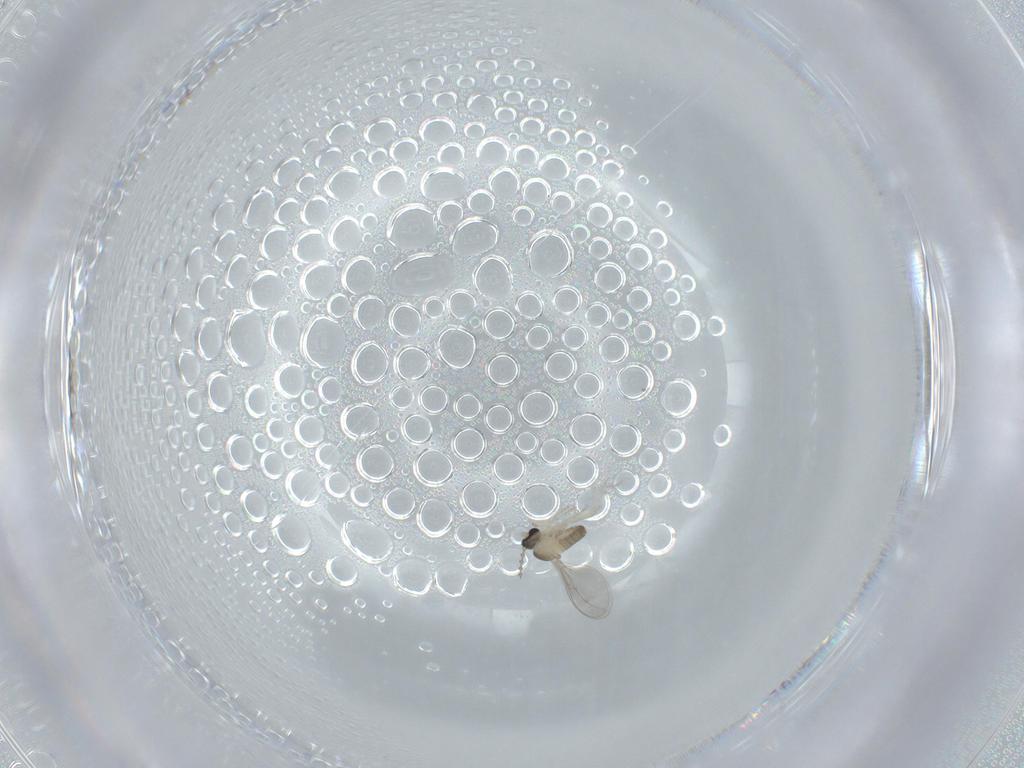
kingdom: Animalia
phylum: Arthropoda
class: Insecta
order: Diptera
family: Cecidomyiidae
